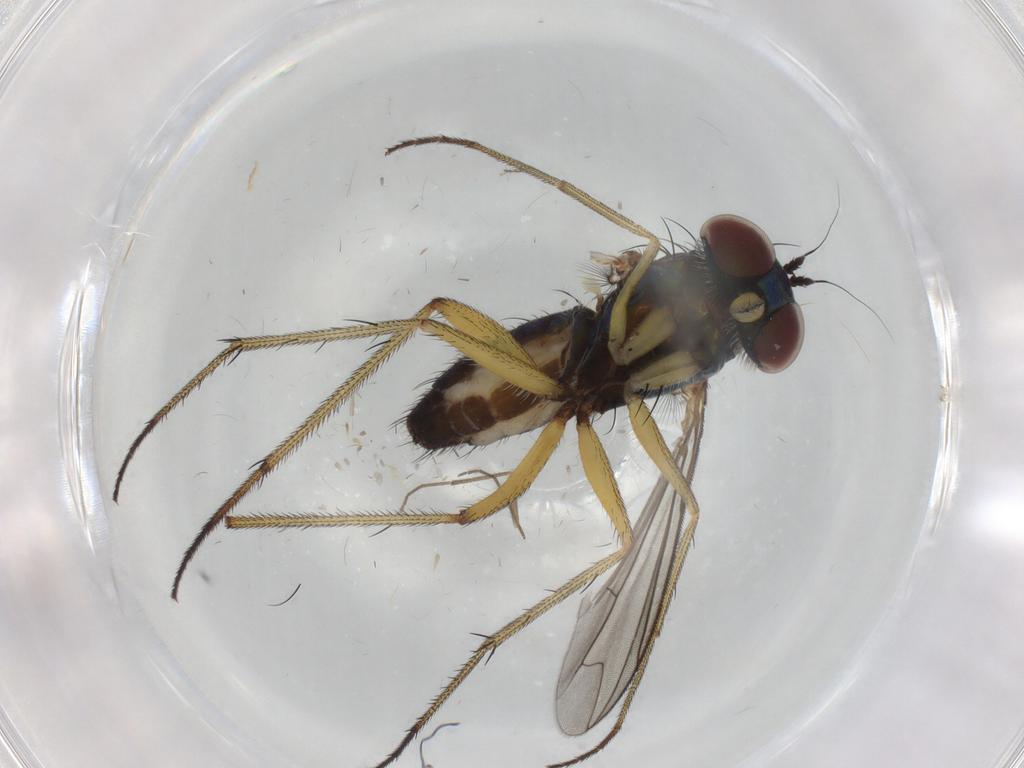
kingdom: Animalia
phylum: Arthropoda
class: Insecta
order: Diptera
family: Dolichopodidae
